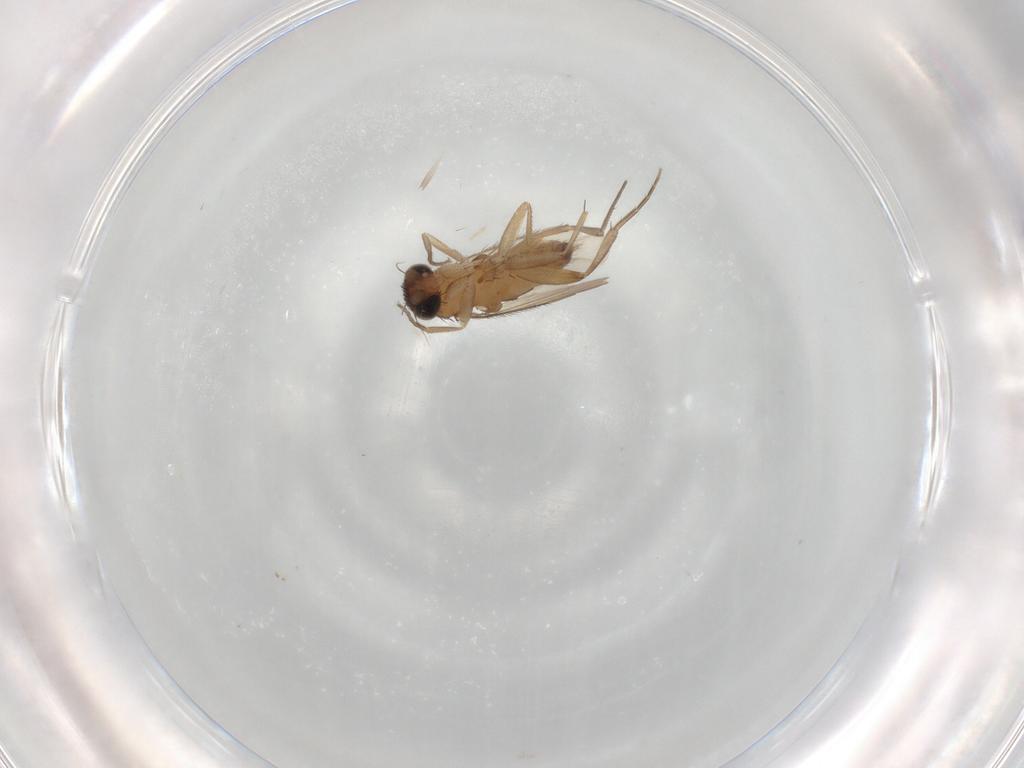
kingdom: Animalia
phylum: Arthropoda
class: Insecta
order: Diptera
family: Phoridae
